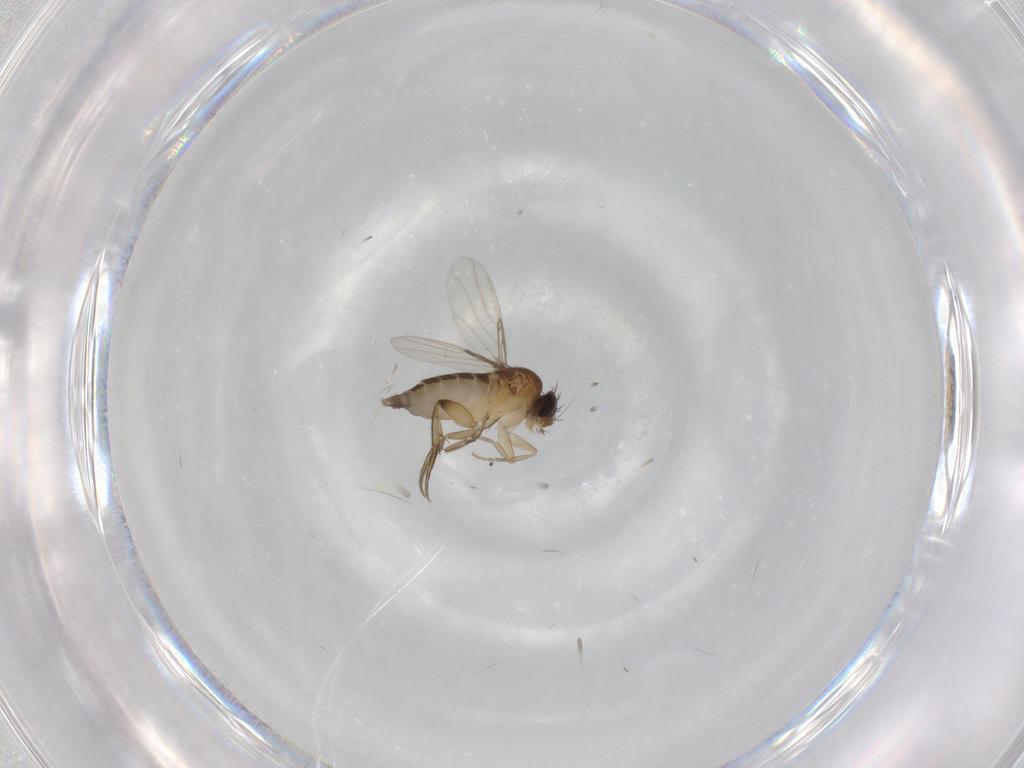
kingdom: Animalia
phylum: Arthropoda
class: Insecta
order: Diptera
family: Phoridae
